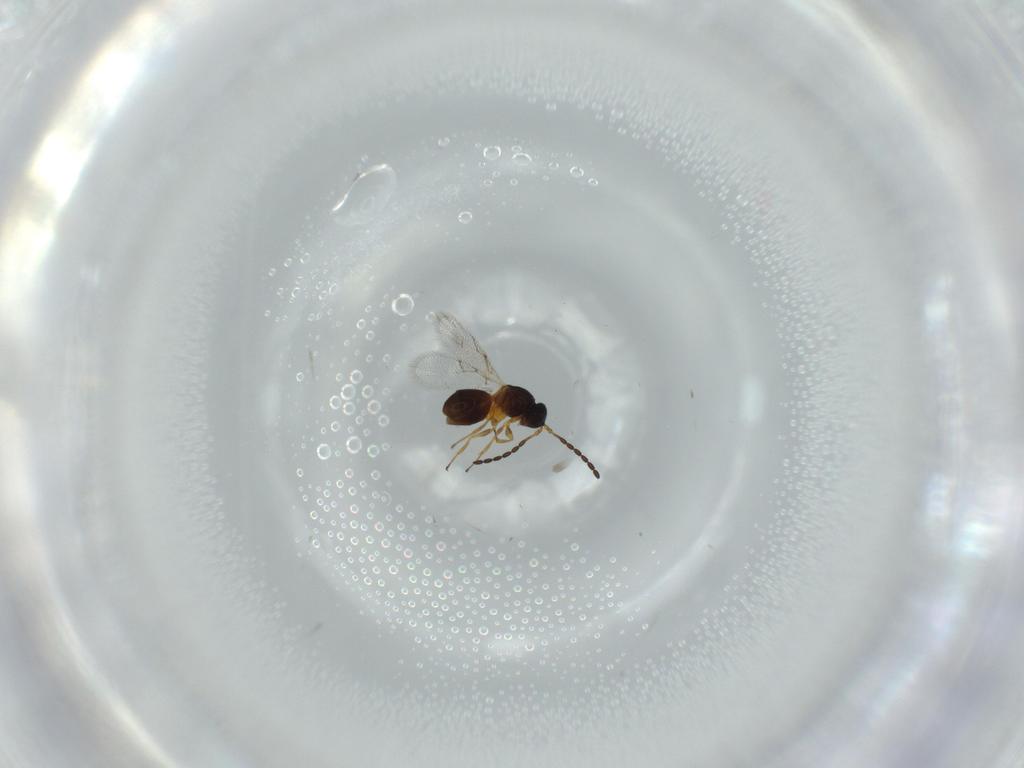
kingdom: Animalia
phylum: Arthropoda
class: Insecta
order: Hymenoptera
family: Figitidae
